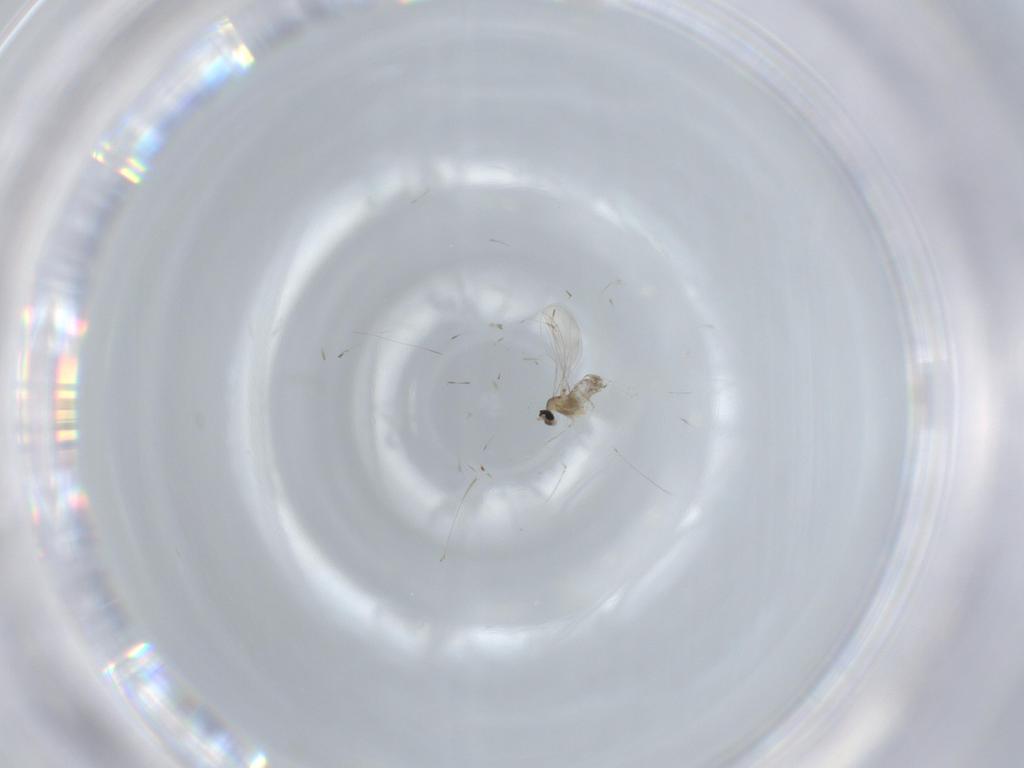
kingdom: Animalia
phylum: Arthropoda
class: Insecta
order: Diptera
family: Cecidomyiidae
